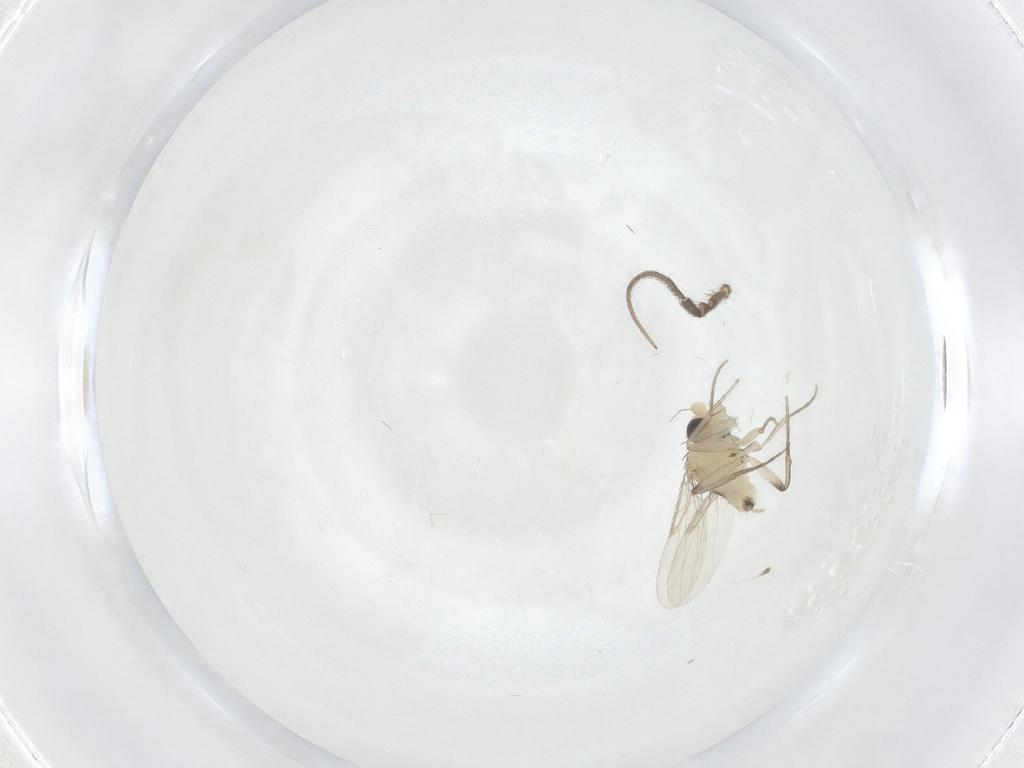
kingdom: Animalia
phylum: Arthropoda
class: Insecta
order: Diptera
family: Phoridae
